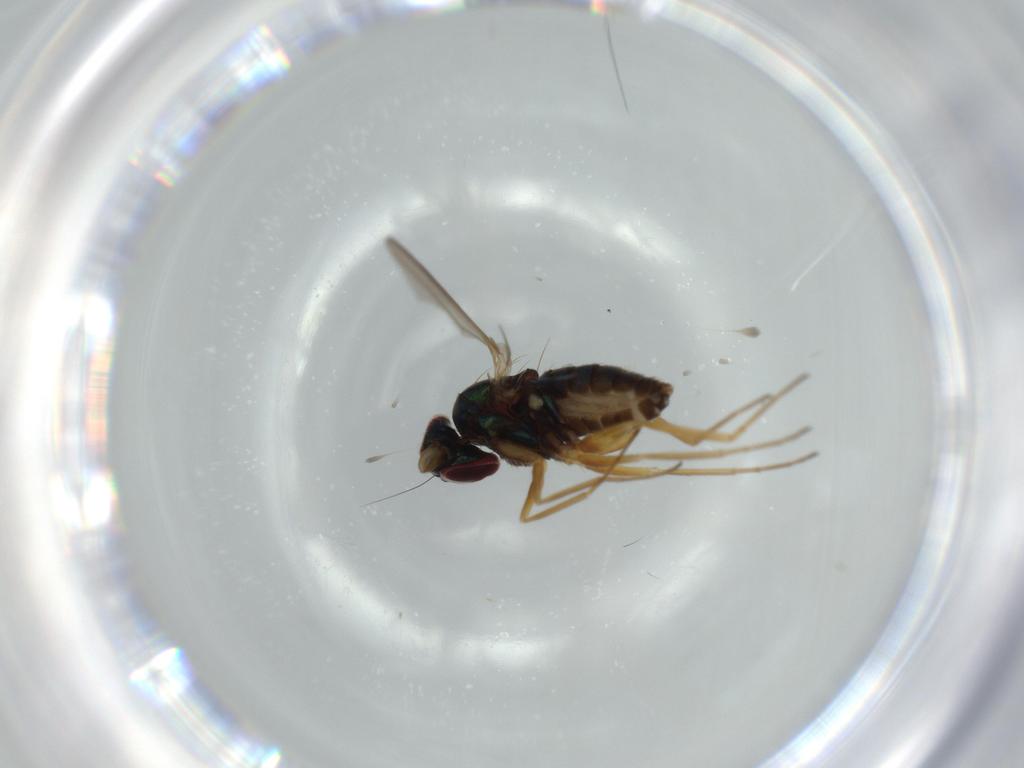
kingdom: Animalia
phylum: Arthropoda
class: Insecta
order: Diptera
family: Dolichopodidae
